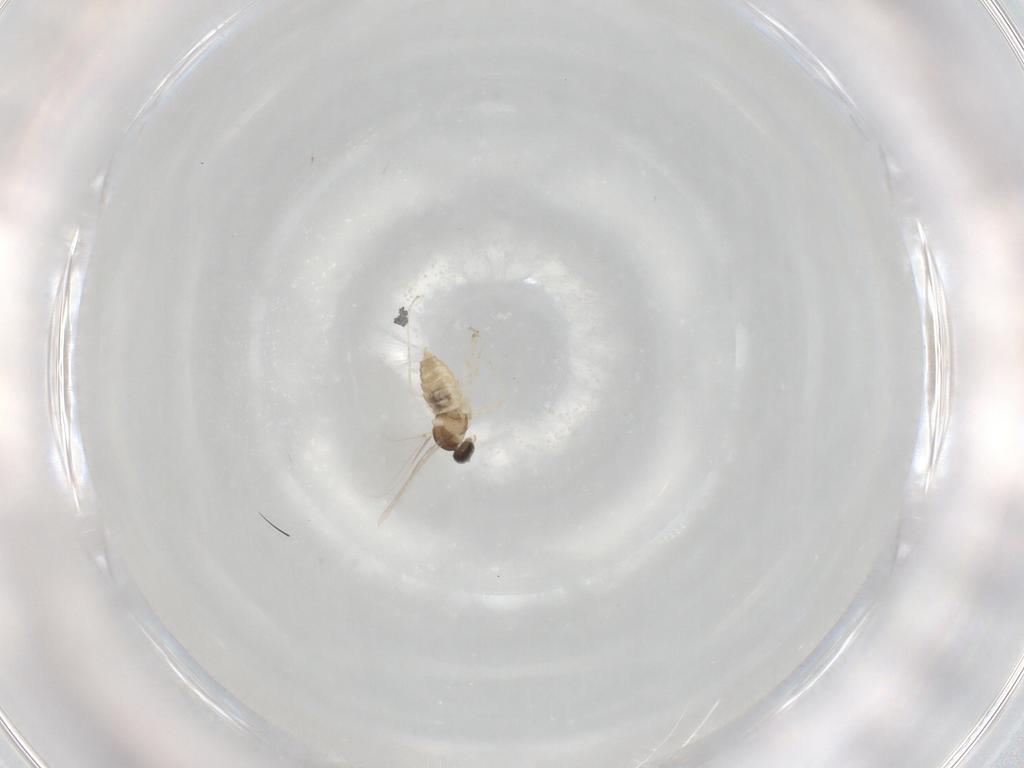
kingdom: Animalia
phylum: Arthropoda
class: Insecta
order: Diptera
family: Cecidomyiidae
